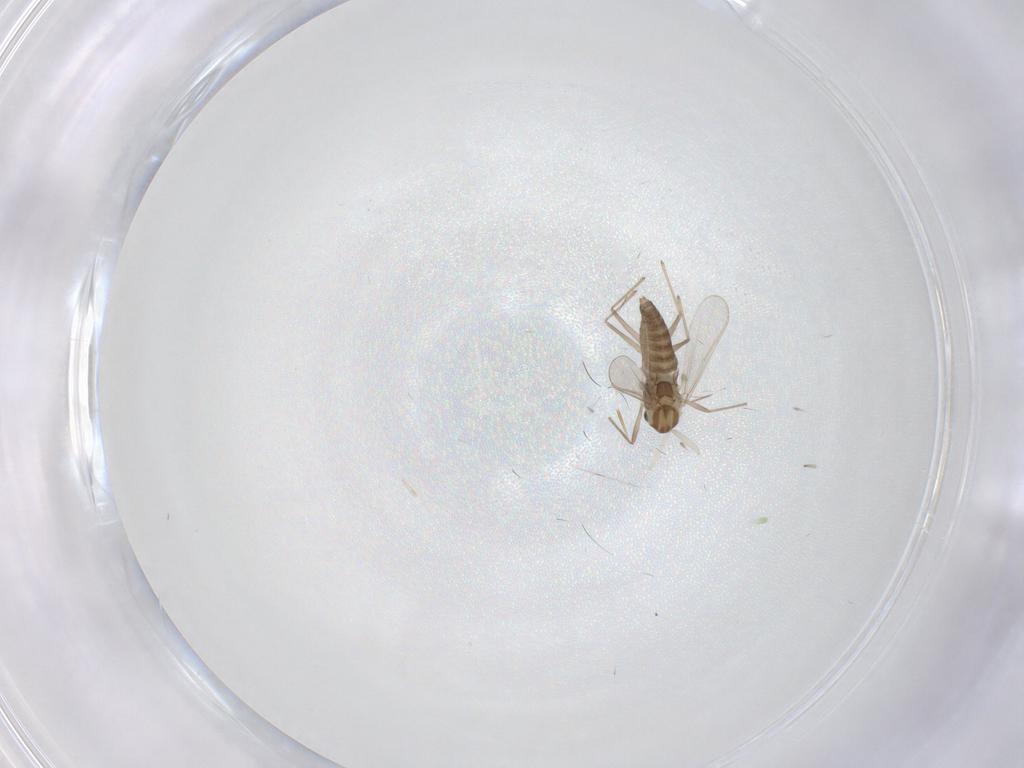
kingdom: Animalia
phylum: Arthropoda
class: Insecta
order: Diptera
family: Chironomidae
